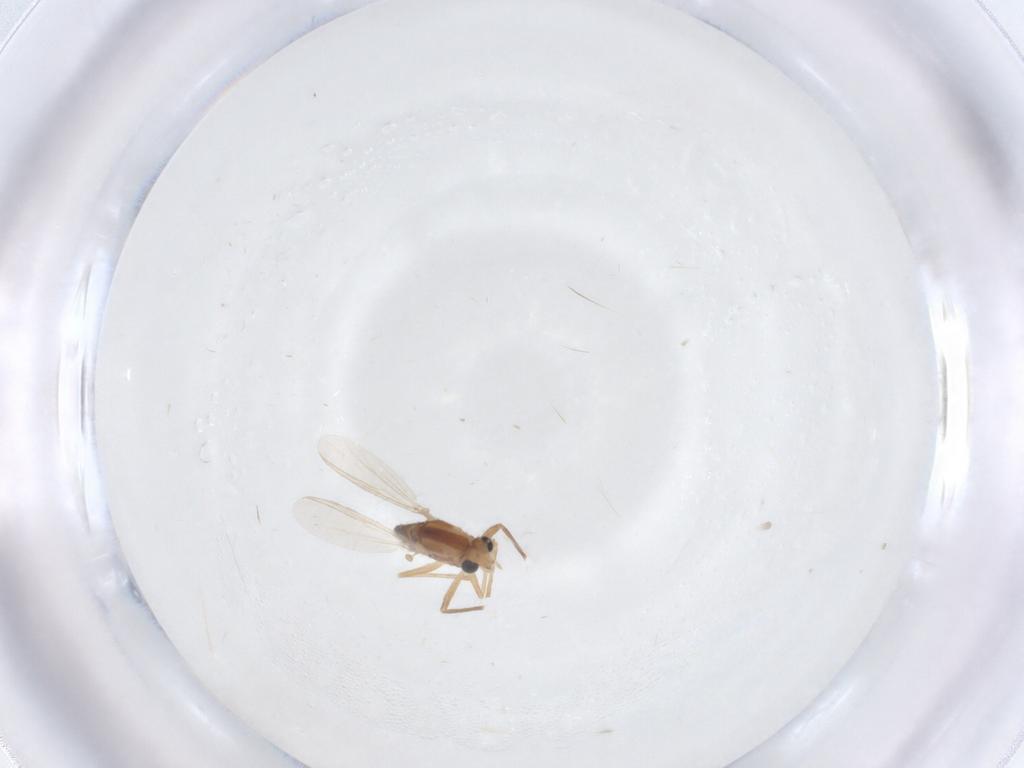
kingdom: Animalia
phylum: Arthropoda
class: Insecta
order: Diptera
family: Chironomidae
